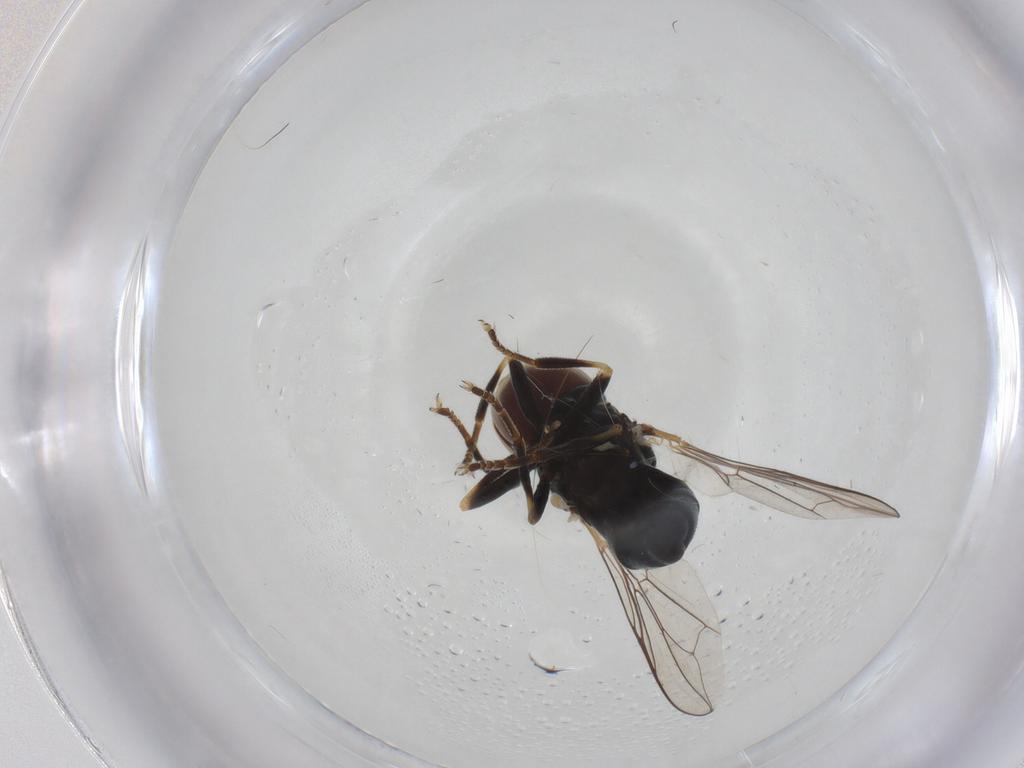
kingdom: Animalia
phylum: Arthropoda
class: Insecta
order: Diptera
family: Pipunculidae
